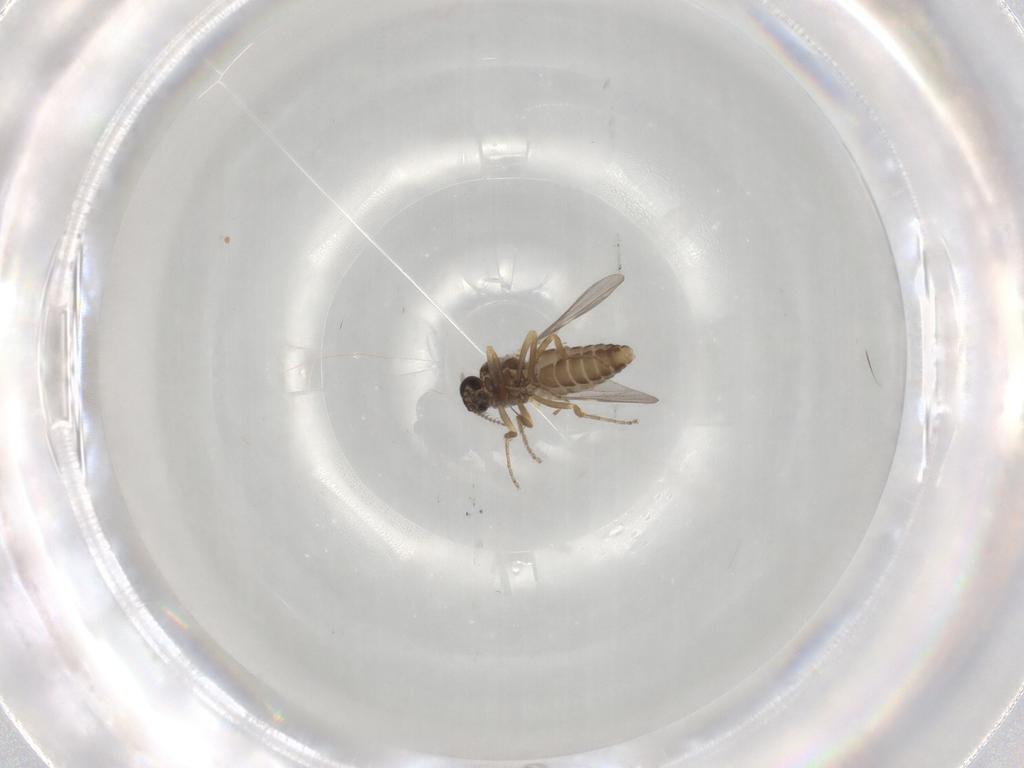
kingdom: Animalia
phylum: Arthropoda
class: Insecta
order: Diptera
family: Ceratopogonidae
